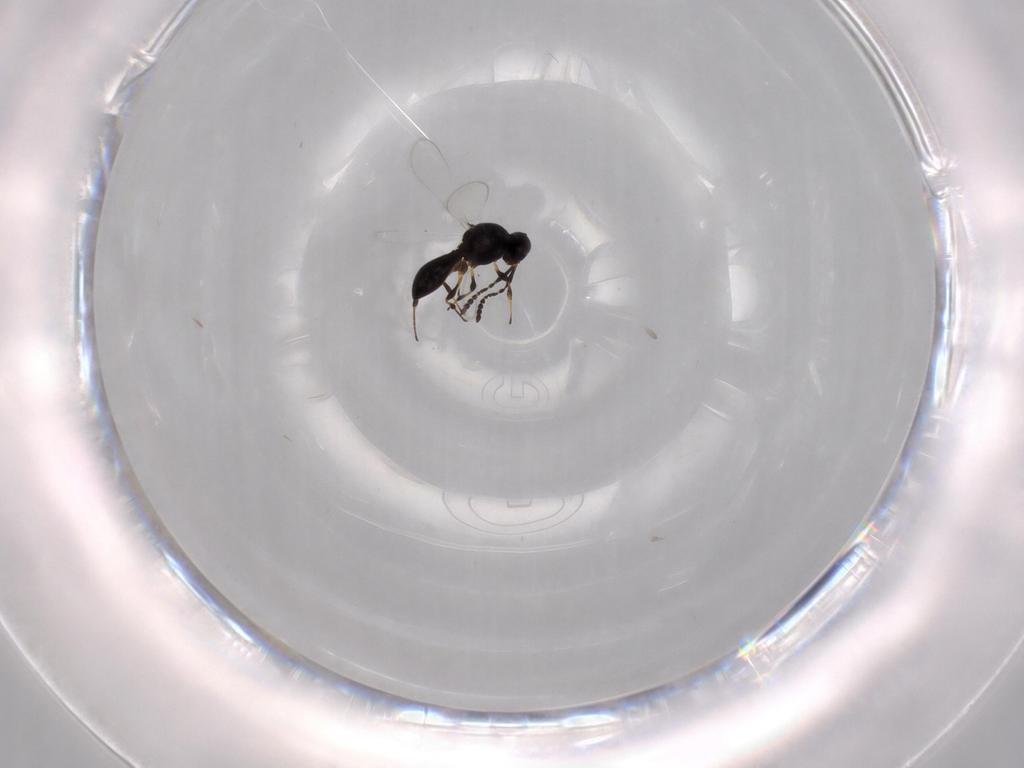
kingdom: Animalia
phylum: Arthropoda
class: Insecta
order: Hymenoptera
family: Platygastridae
